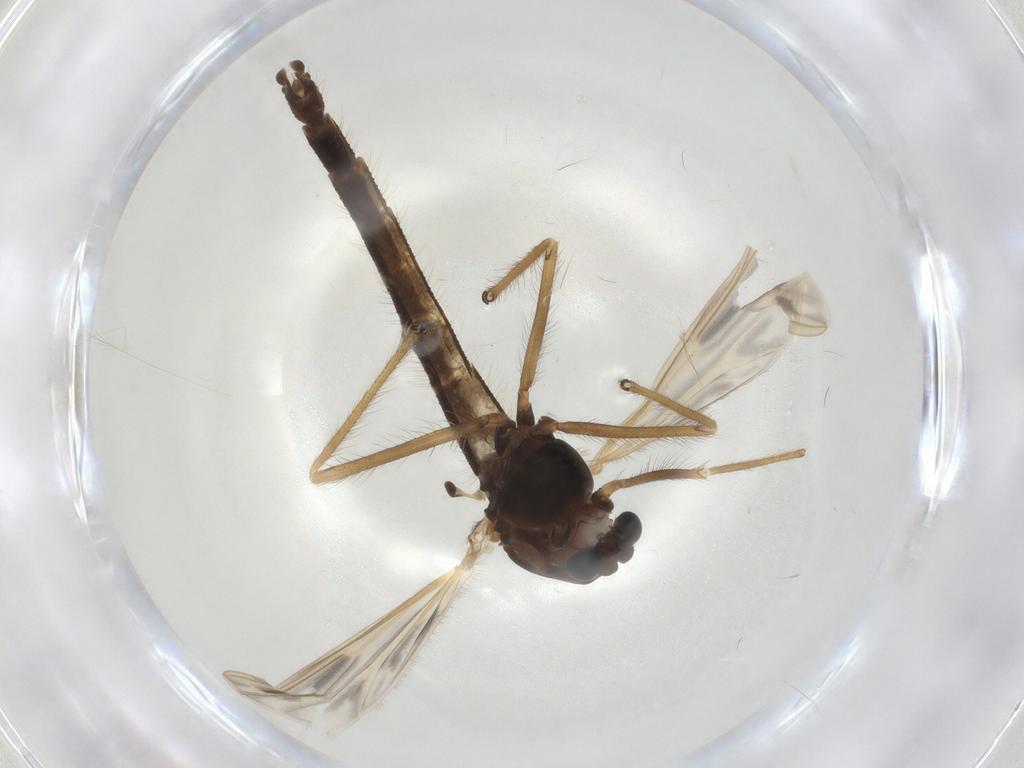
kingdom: Animalia
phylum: Arthropoda
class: Insecta
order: Diptera
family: Chironomidae
